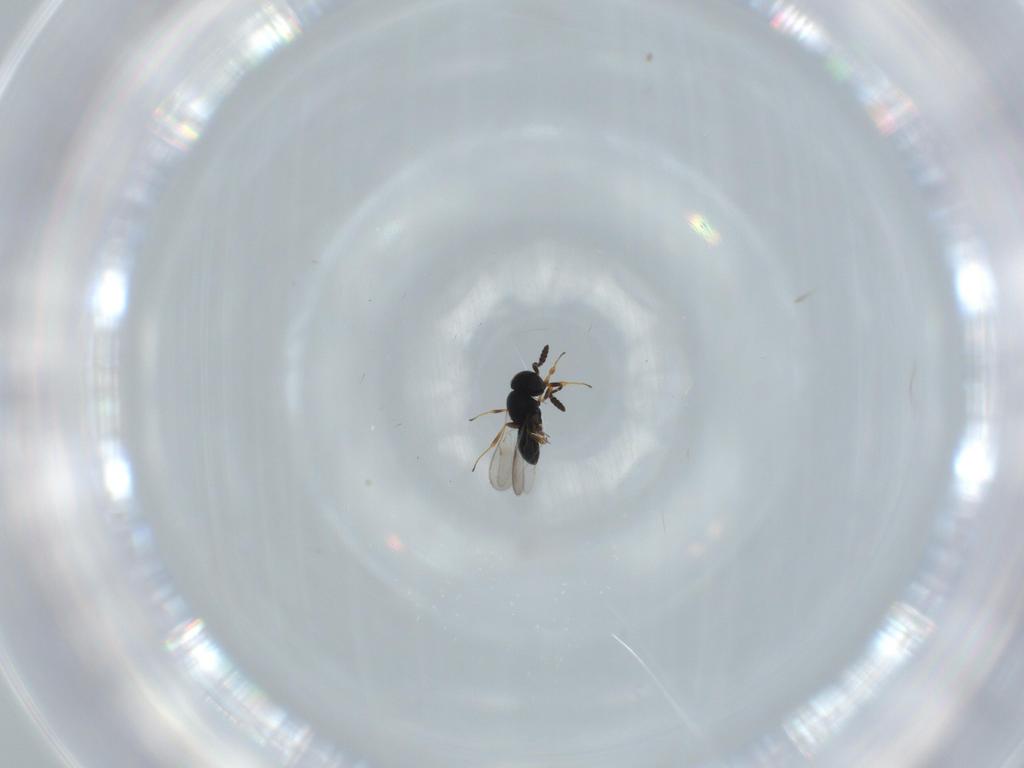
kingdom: Animalia
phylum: Arthropoda
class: Insecta
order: Hymenoptera
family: Scelionidae
